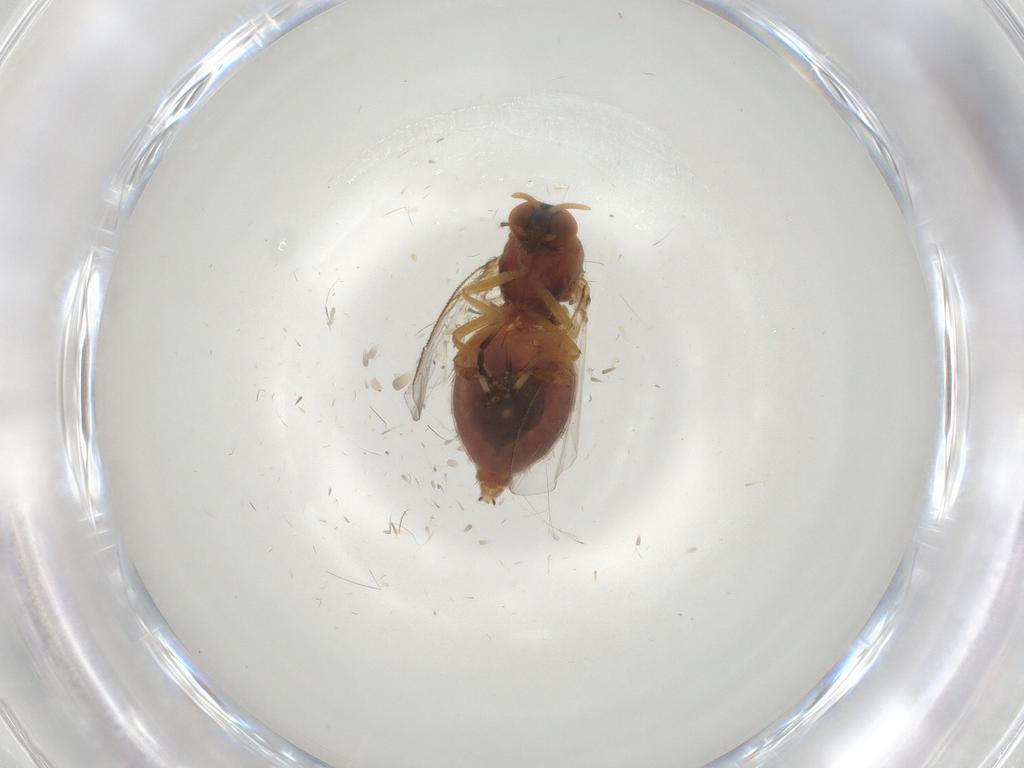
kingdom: Animalia
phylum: Arthropoda
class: Insecta
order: Diptera
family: Simuliidae
